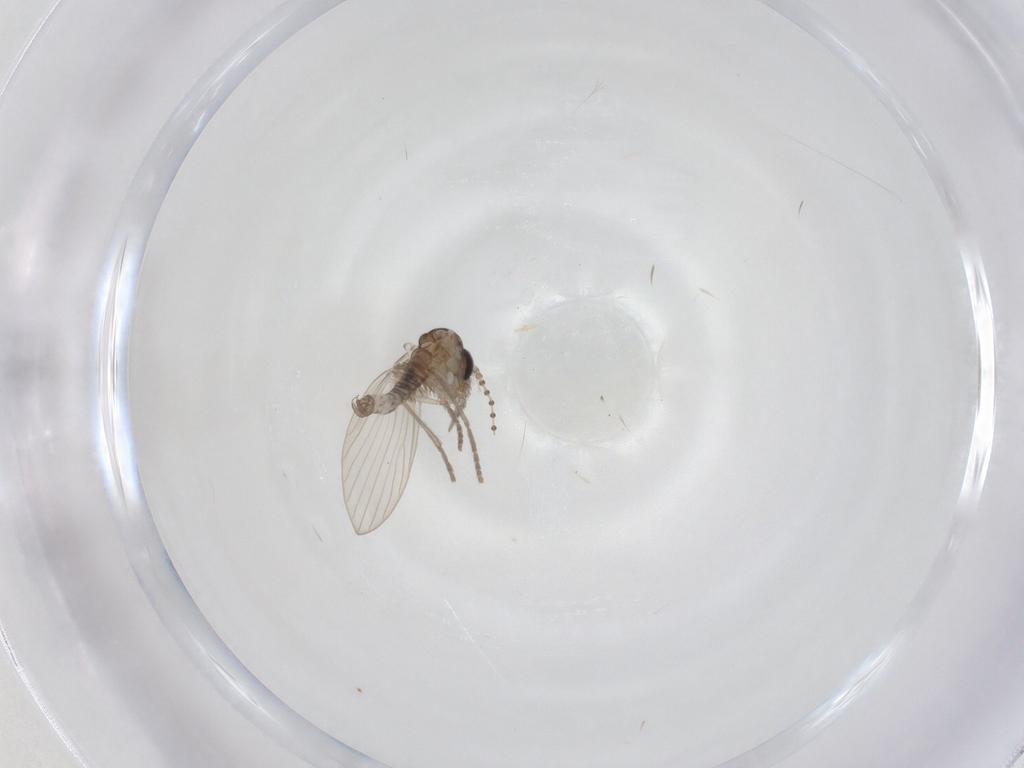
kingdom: Animalia
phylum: Arthropoda
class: Insecta
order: Diptera
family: Psychodidae
